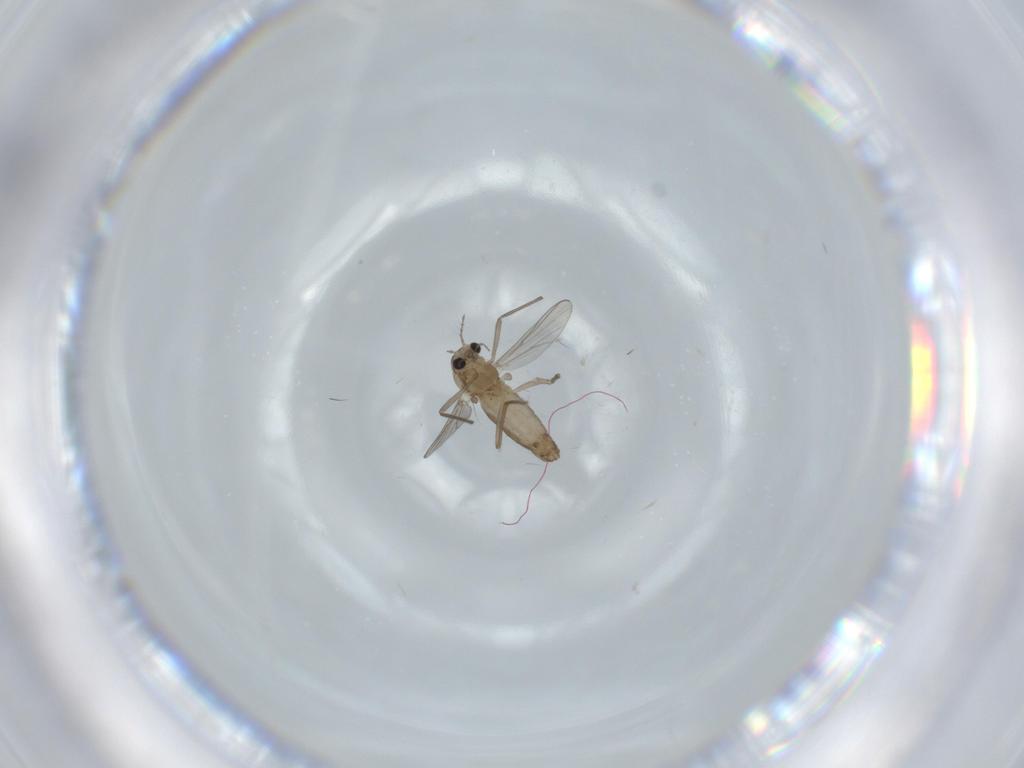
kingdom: Animalia
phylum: Arthropoda
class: Insecta
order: Diptera
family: Chironomidae
